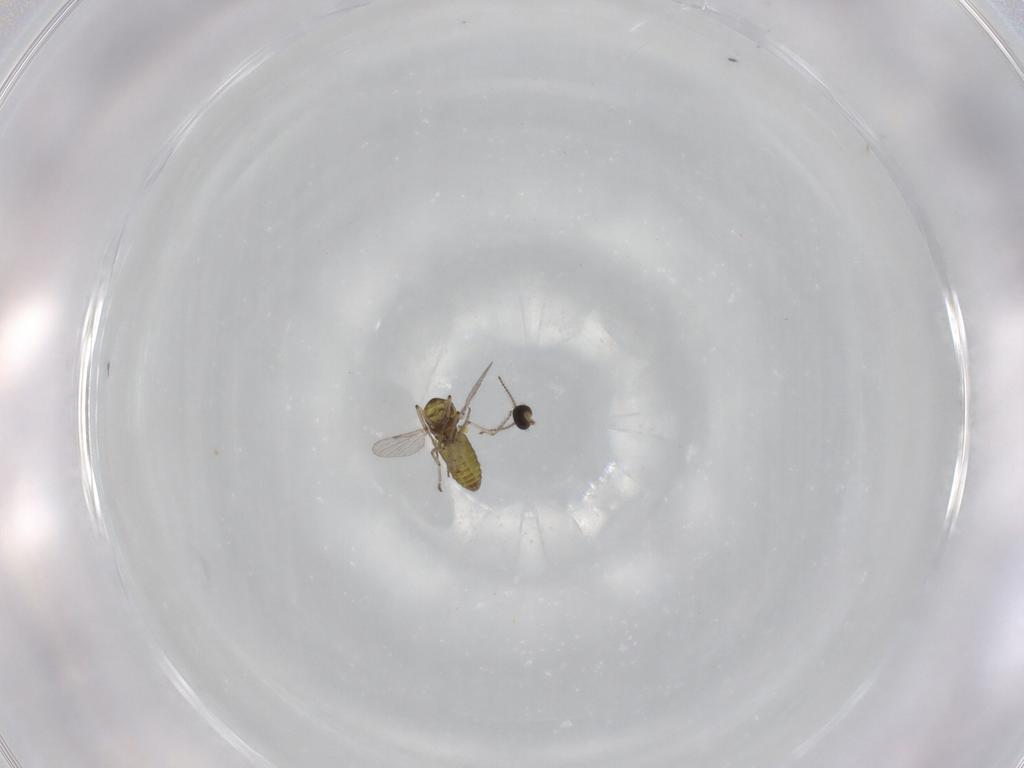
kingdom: Animalia
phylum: Arthropoda
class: Insecta
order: Diptera
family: Ceratopogonidae
